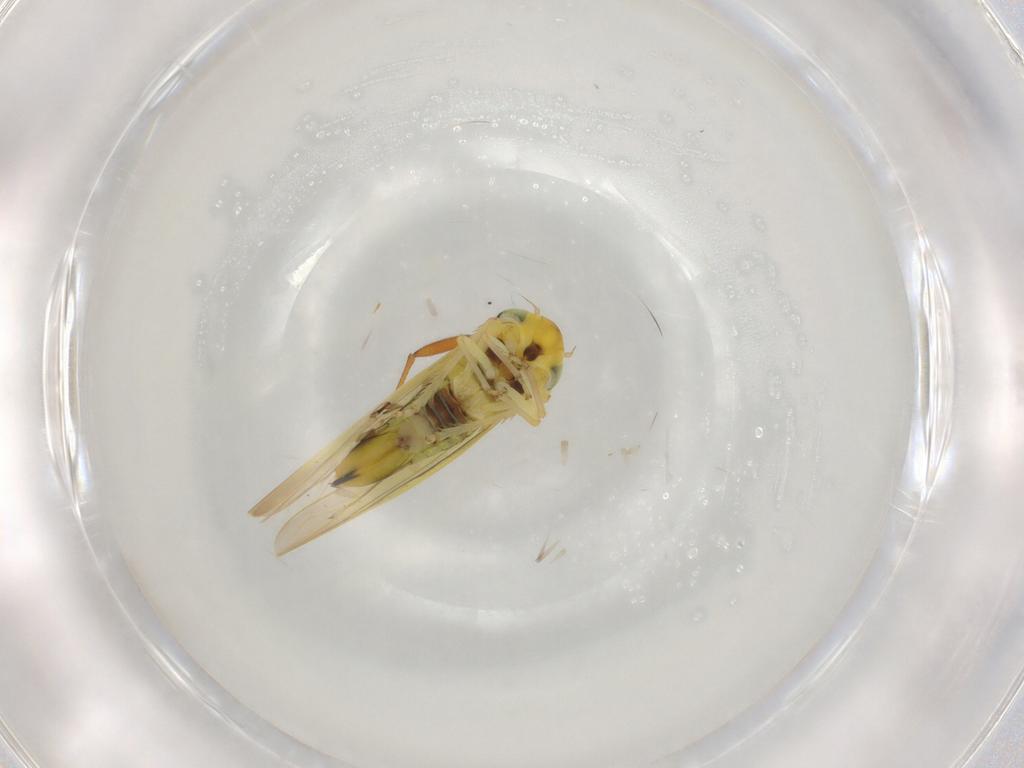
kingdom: Animalia
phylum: Arthropoda
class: Insecta
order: Hemiptera
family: Cicadellidae
